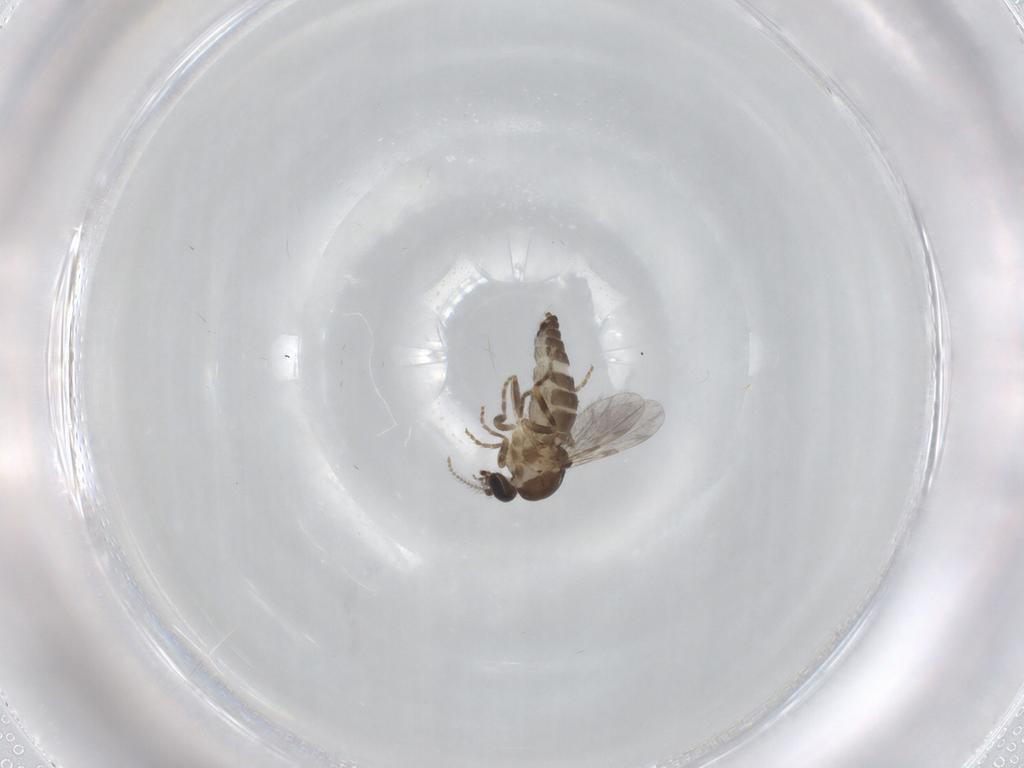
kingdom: Animalia
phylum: Arthropoda
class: Insecta
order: Diptera
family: Ceratopogonidae
